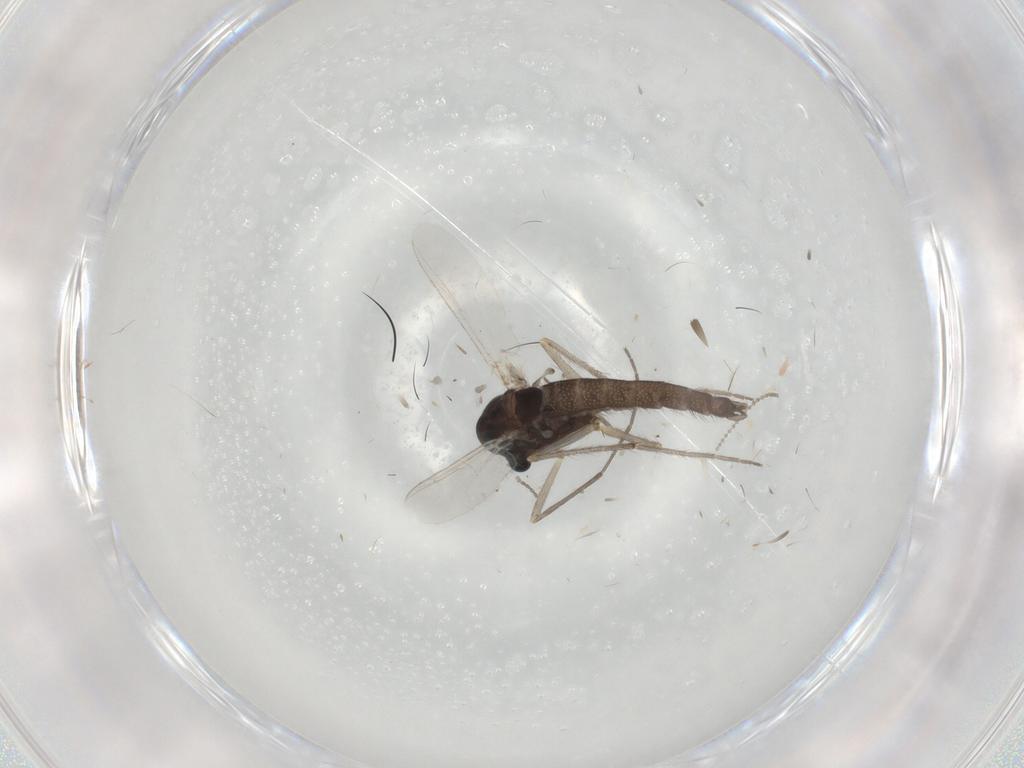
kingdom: Animalia
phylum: Arthropoda
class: Insecta
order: Diptera
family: Chironomidae
